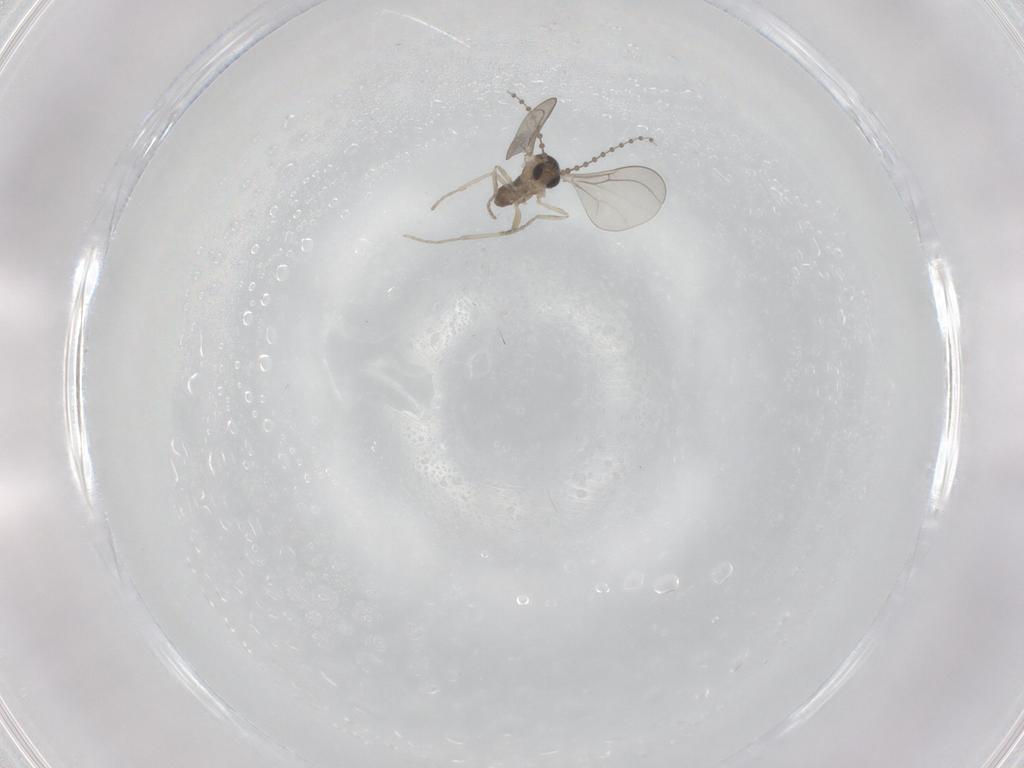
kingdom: Animalia
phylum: Arthropoda
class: Insecta
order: Diptera
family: Cecidomyiidae
